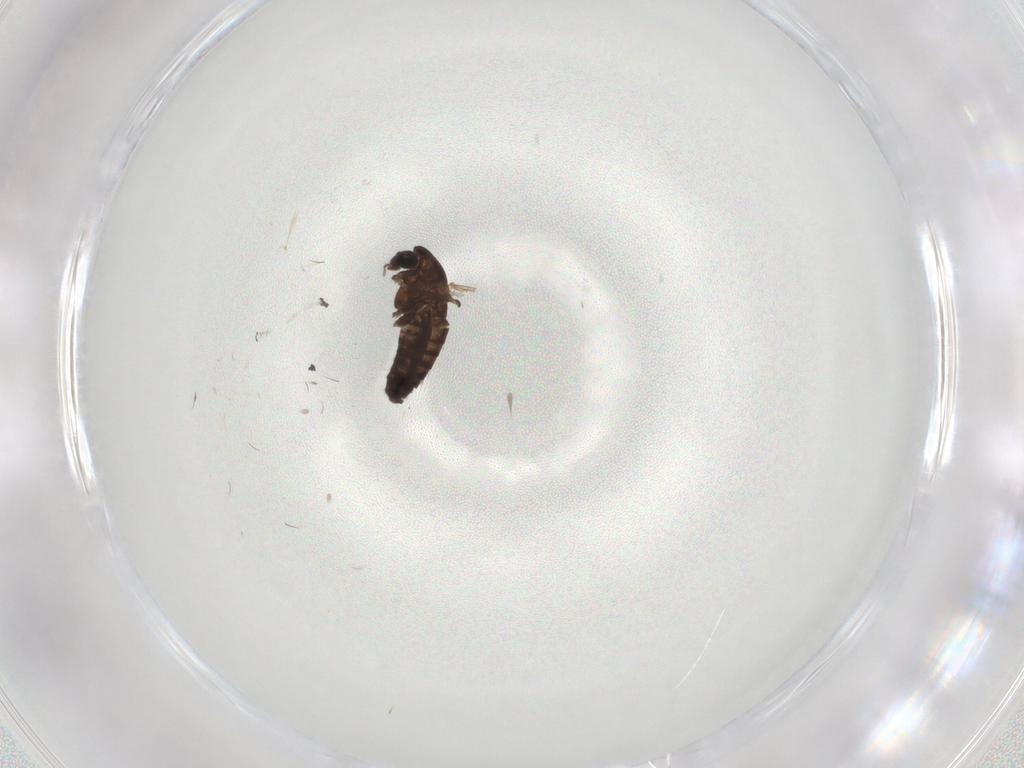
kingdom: Animalia
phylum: Arthropoda
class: Insecta
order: Diptera
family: Chironomidae
